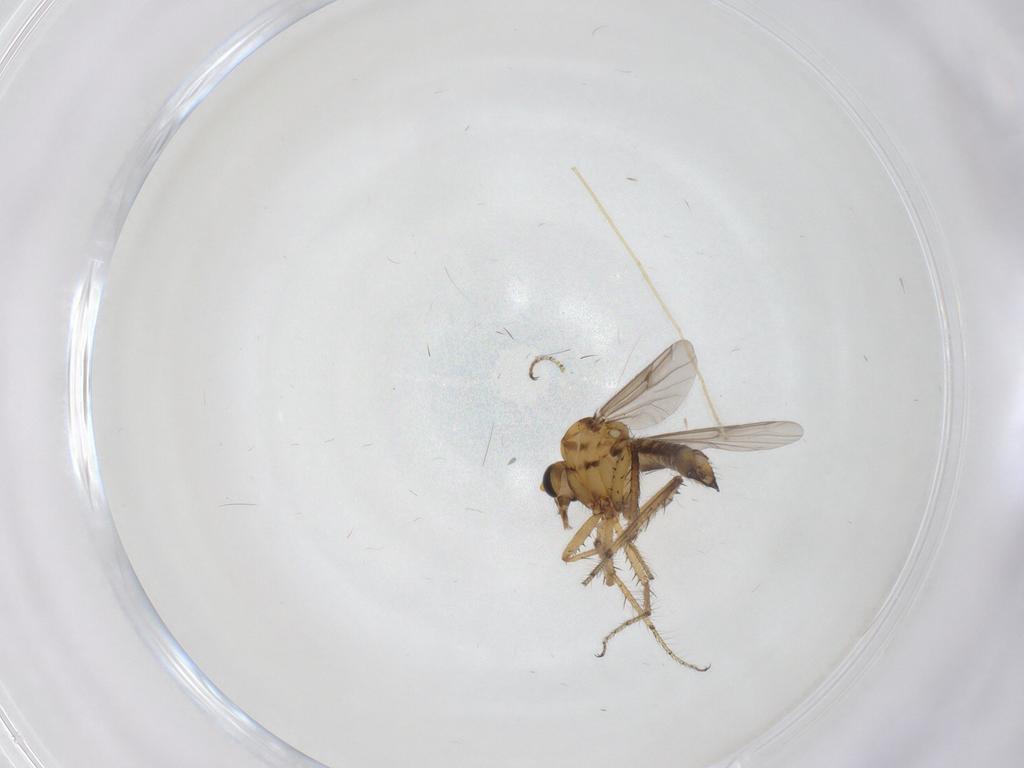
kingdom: Animalia
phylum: Arthropoda
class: Insecta
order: Diptera
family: Ceratopogonidae
